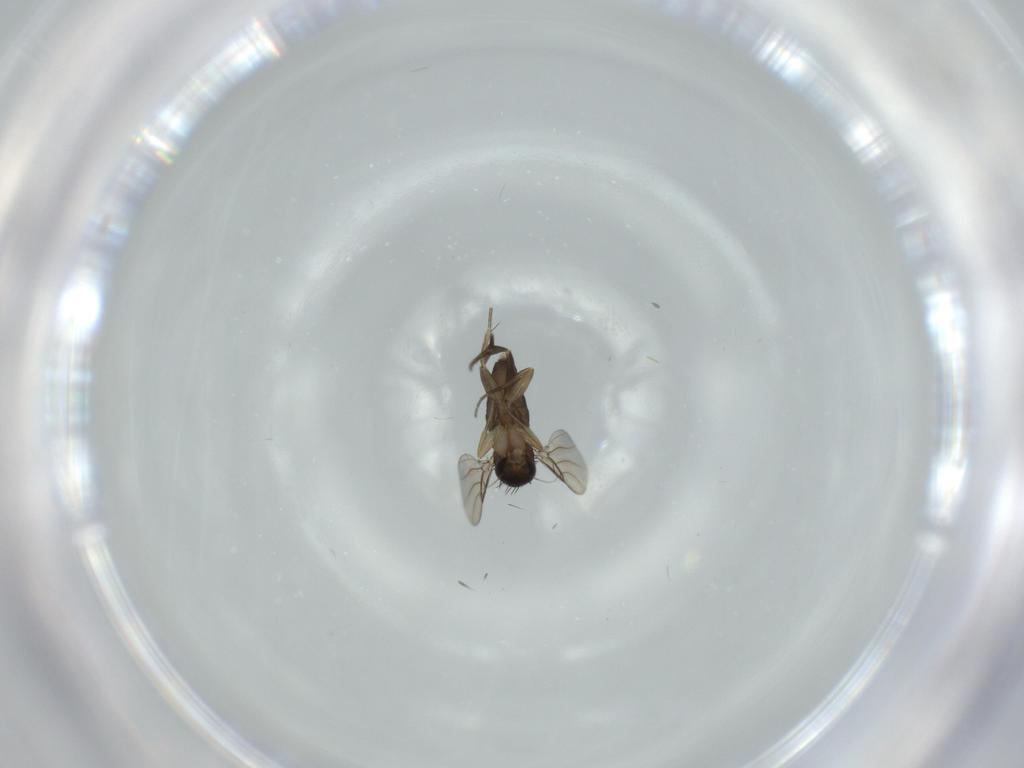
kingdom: Animalia
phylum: Arthropoda
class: Insecta
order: Diptera
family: Phoridae
